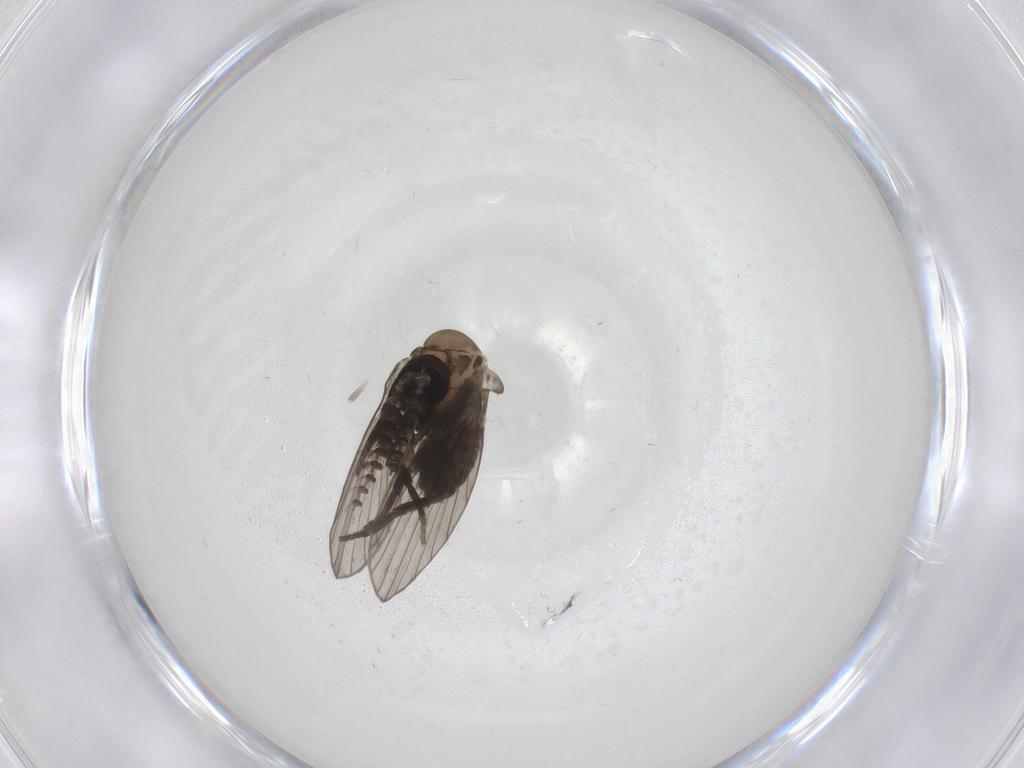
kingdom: Animalia
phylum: Arthropoda
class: Insecta
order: Diptera
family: Psychodidae
